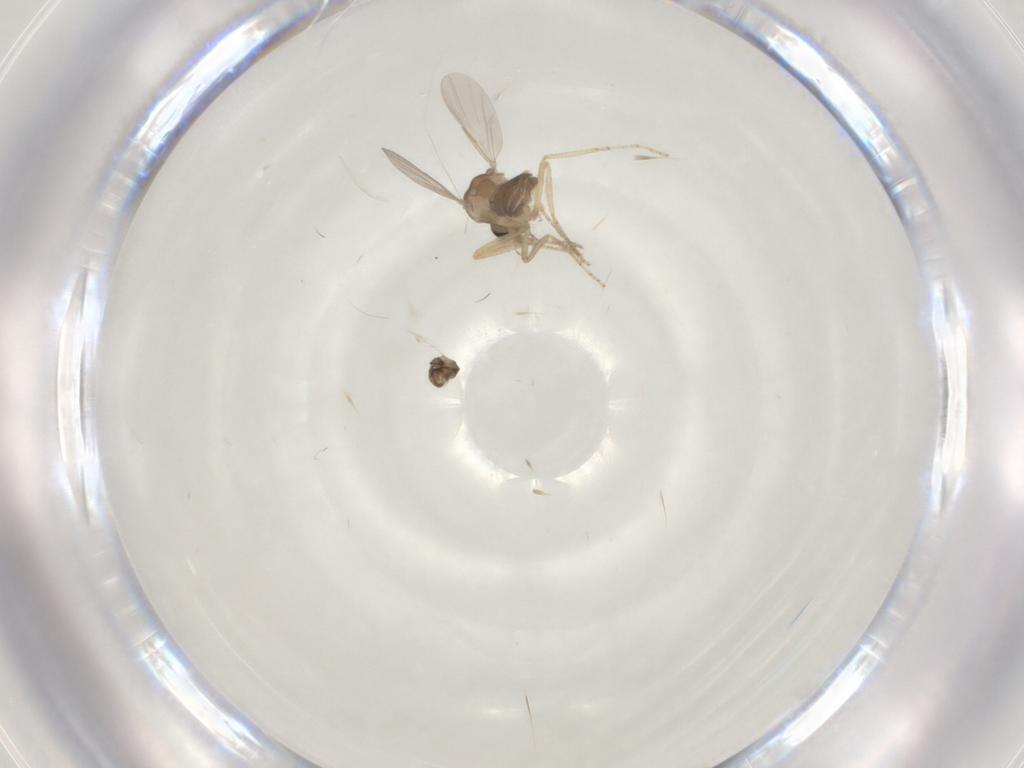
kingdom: Animalia
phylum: Arthropoda
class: Insecta
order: Diptera
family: Ceratopogonidae
